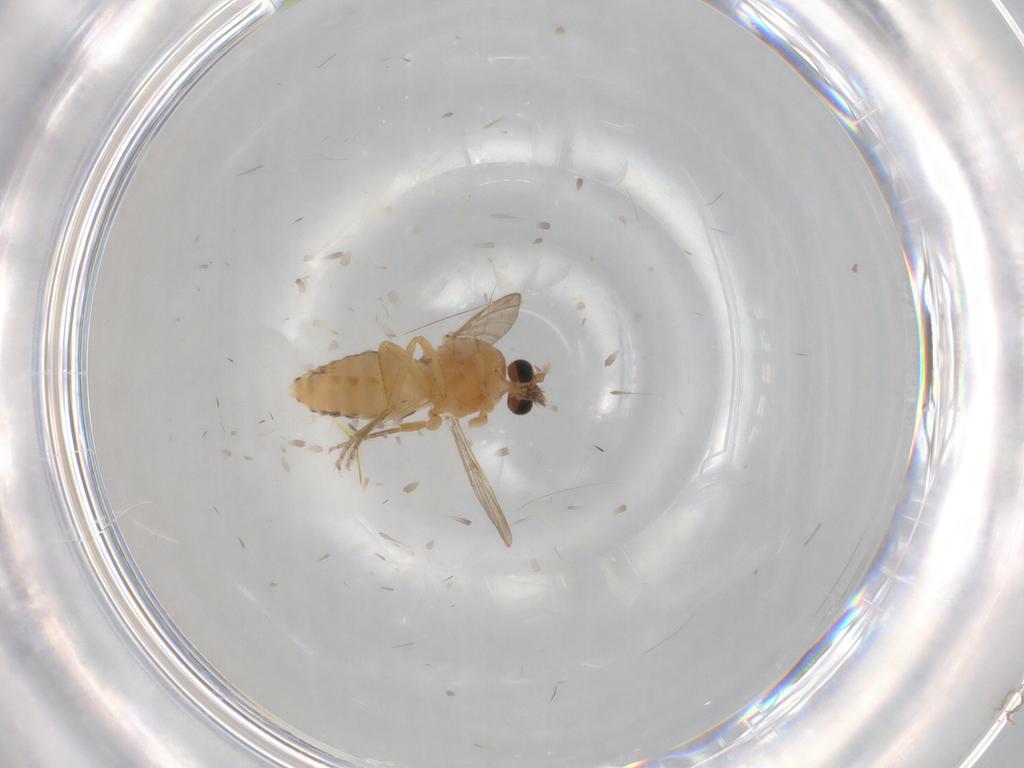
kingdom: Animalia
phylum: Arthropoda
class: Insecta
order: Diptera
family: Ceratopogonidae
